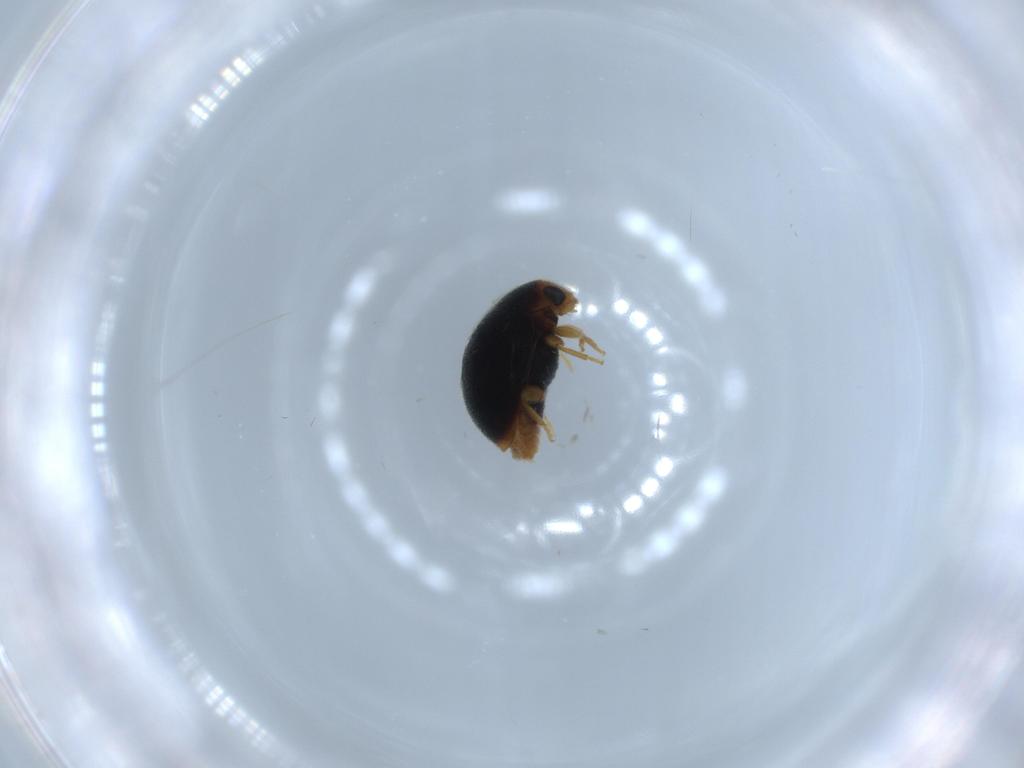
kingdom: Animalia
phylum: Arthropoda
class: Insecta
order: Coleoptera
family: Coccinellidae
